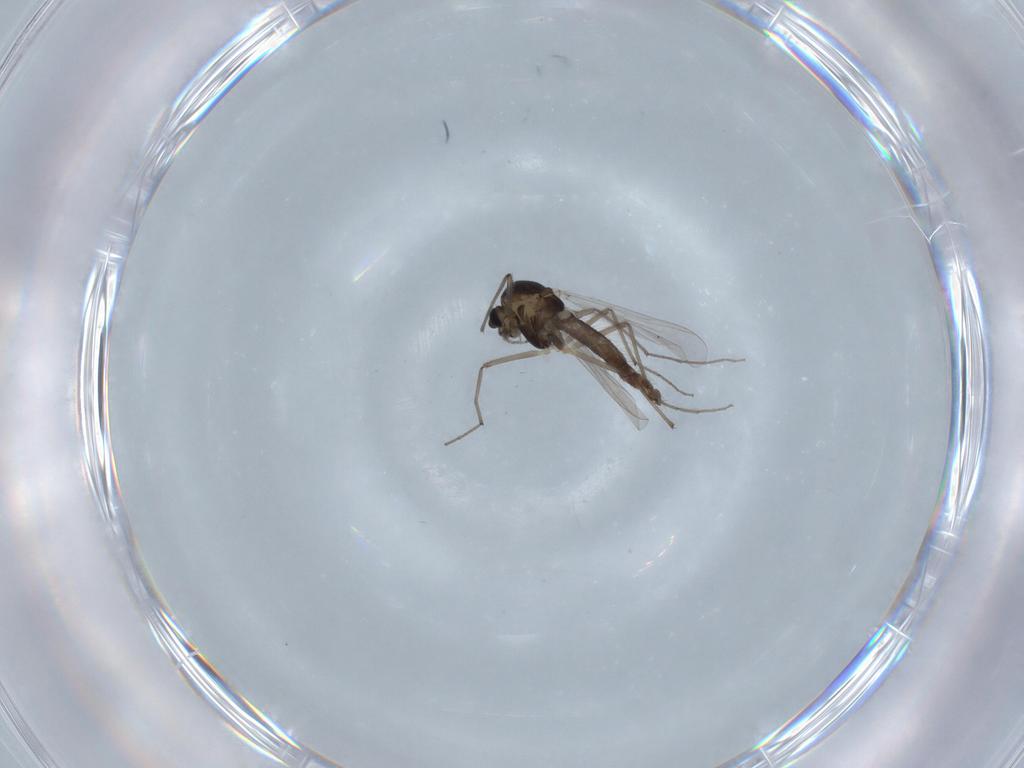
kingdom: Animalia
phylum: Arthropoda
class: Insecta
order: Diptera
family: Chironomidae
